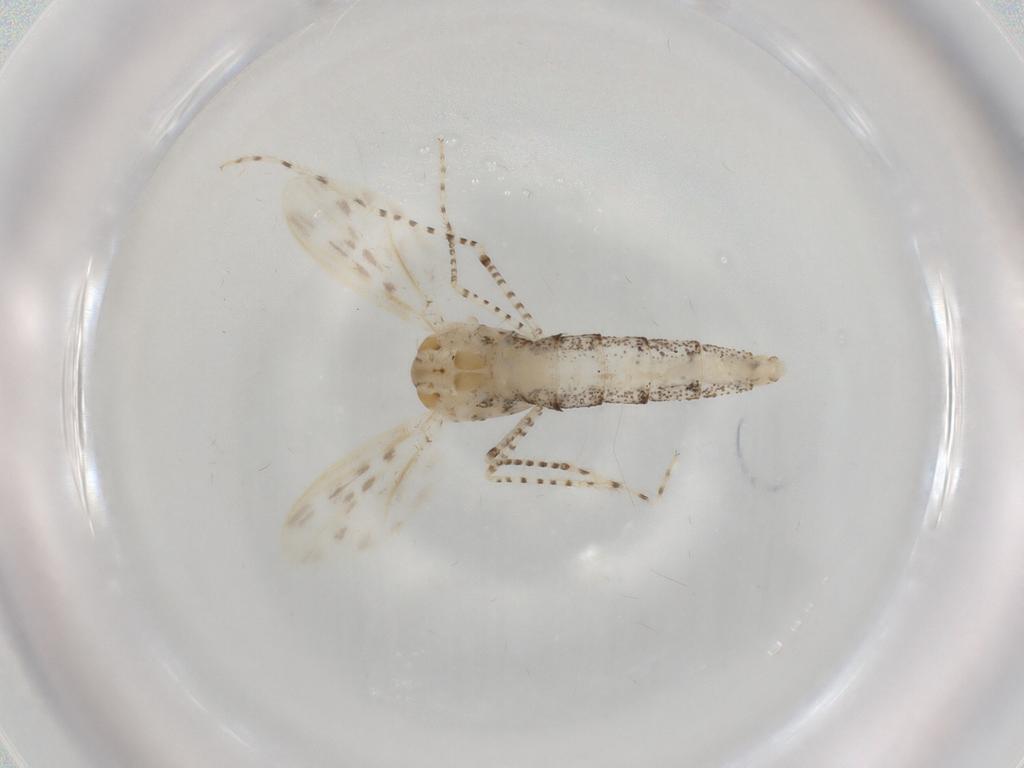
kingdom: Animalia
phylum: Arthropoda
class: Insecta
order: Diptera
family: Chaoboridae
